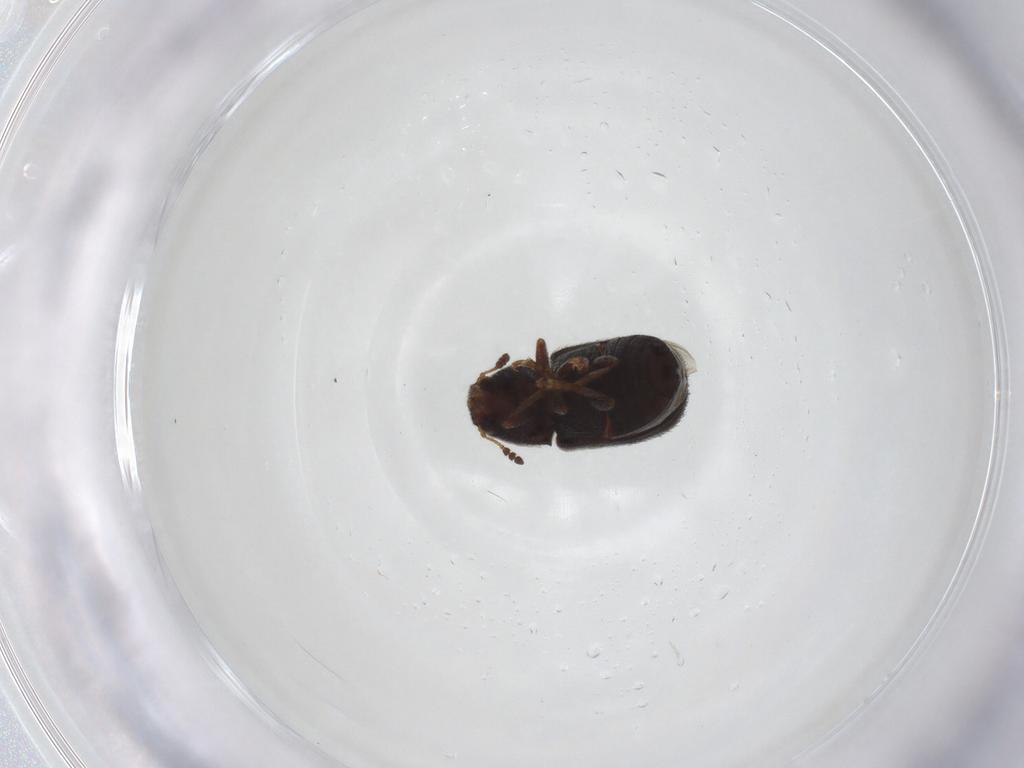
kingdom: Animalia
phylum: Arthropoda
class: Insecta
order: Coleoptera
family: Anthribidae
